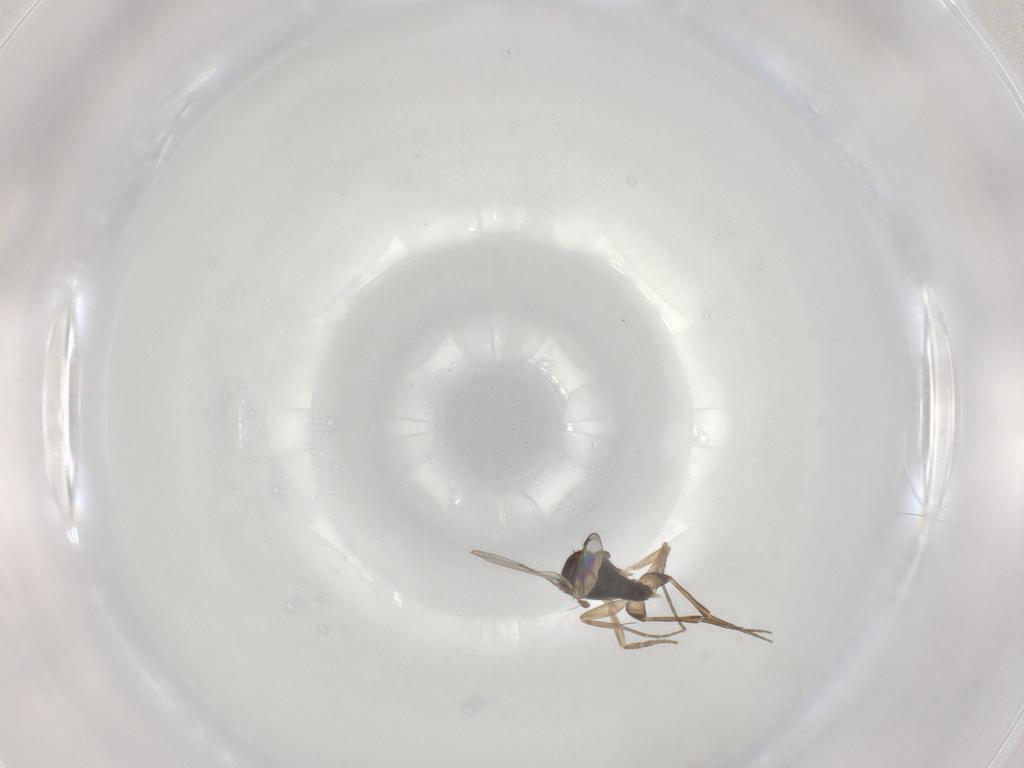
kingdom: Animalia
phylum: Arthropoda
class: Insecta
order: Diptera
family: Phoridae
